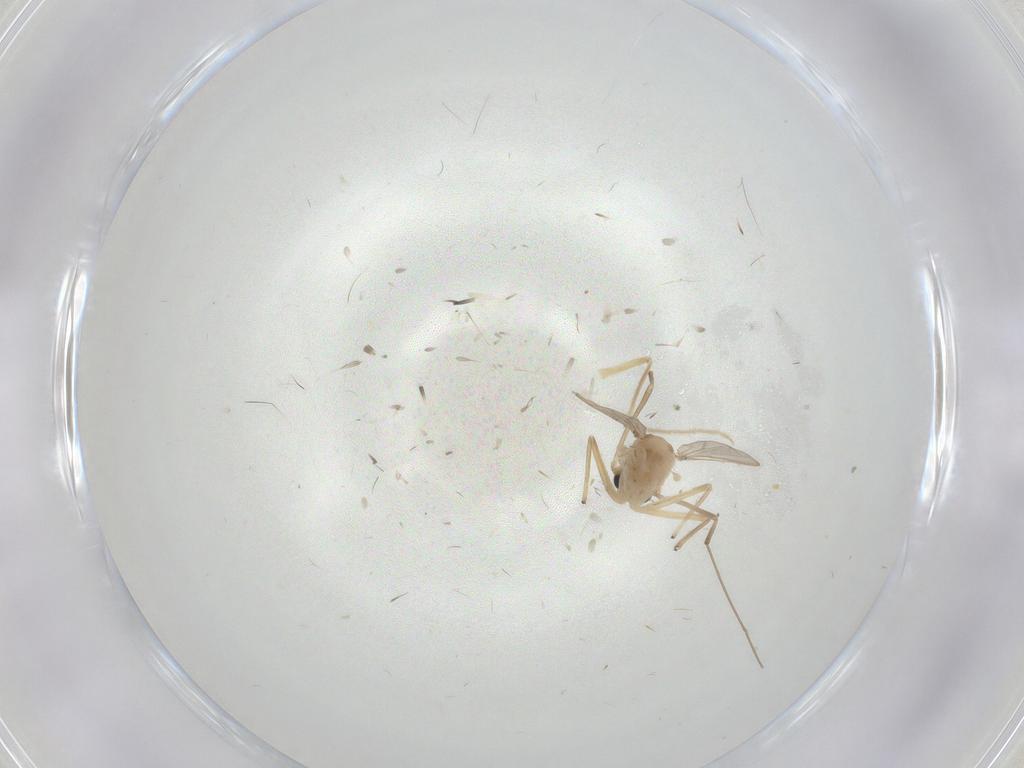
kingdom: Animalia
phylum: Arthropoda
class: Insecta
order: Diptera
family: Chironomidae
